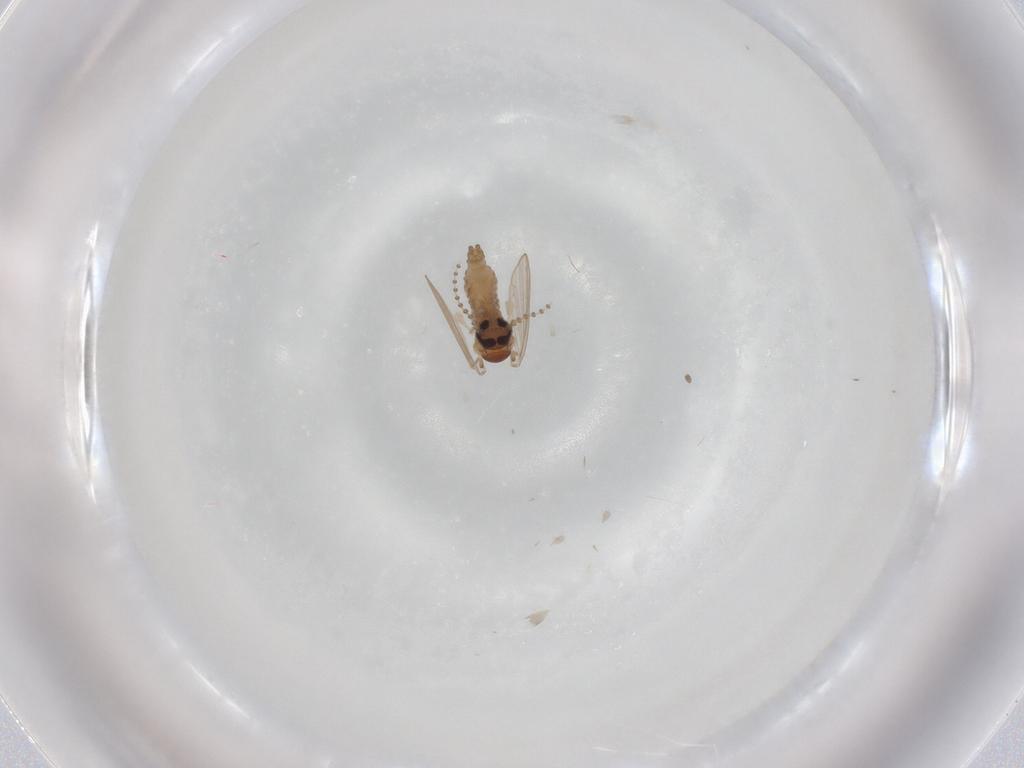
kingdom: Animalia
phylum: Arthropoda
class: Insecta
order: Diptera
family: Psychodidae
